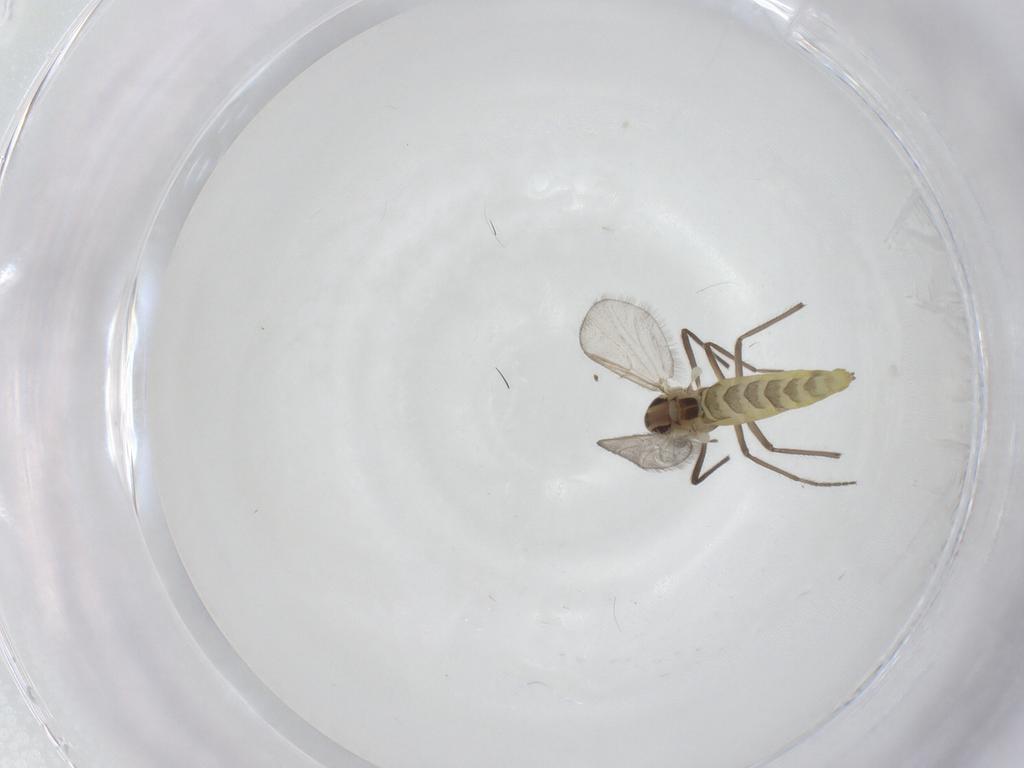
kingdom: Animalia
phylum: Arthropoda
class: Insecta
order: Diptera
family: Chironomidae
